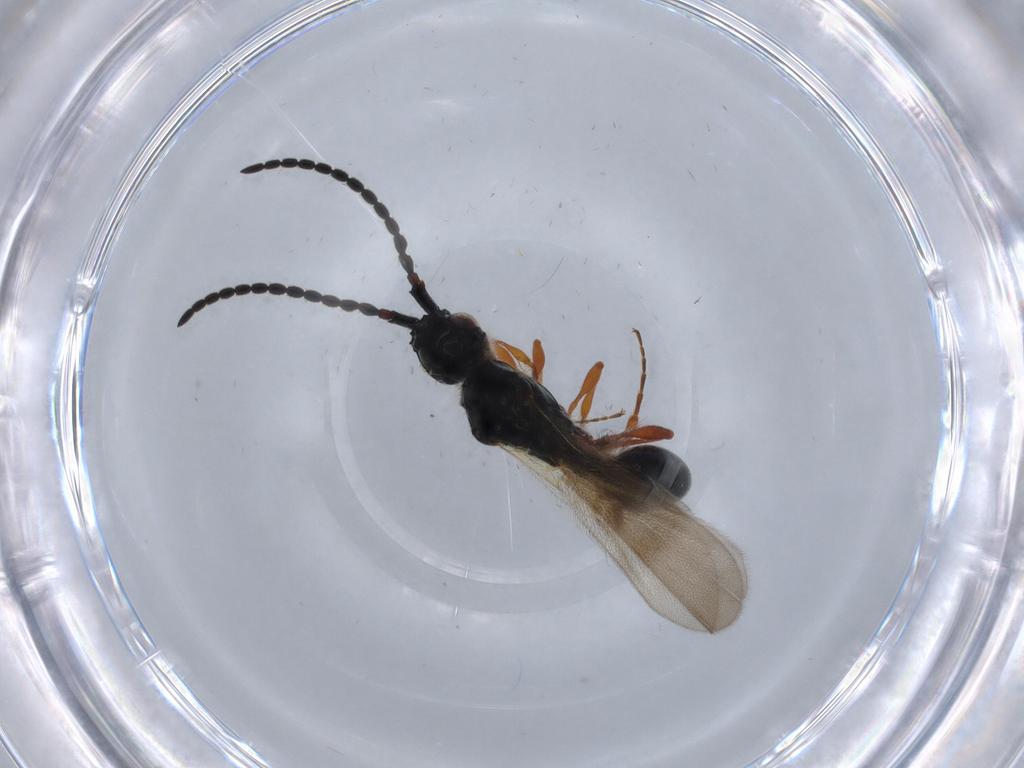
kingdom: Animalia
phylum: Arthropoda
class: Insecta
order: Hymenoptera
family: Diapriidae
